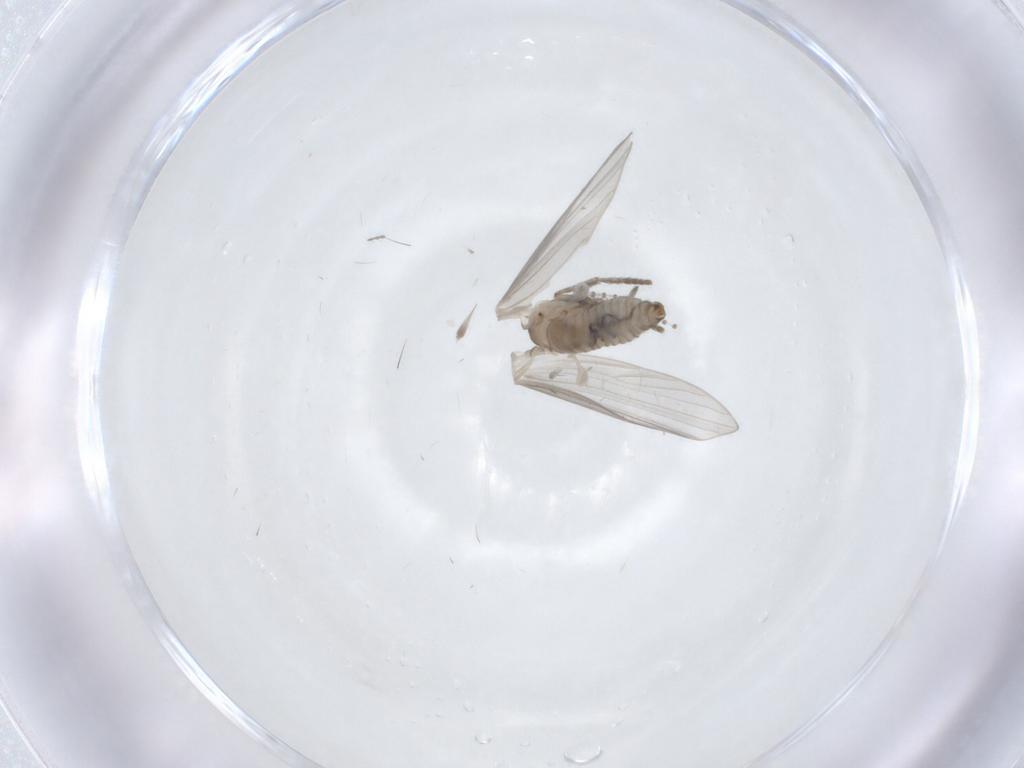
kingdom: Animalia
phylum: Arthropoda
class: Insecta
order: Diptera
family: Psychodidae
